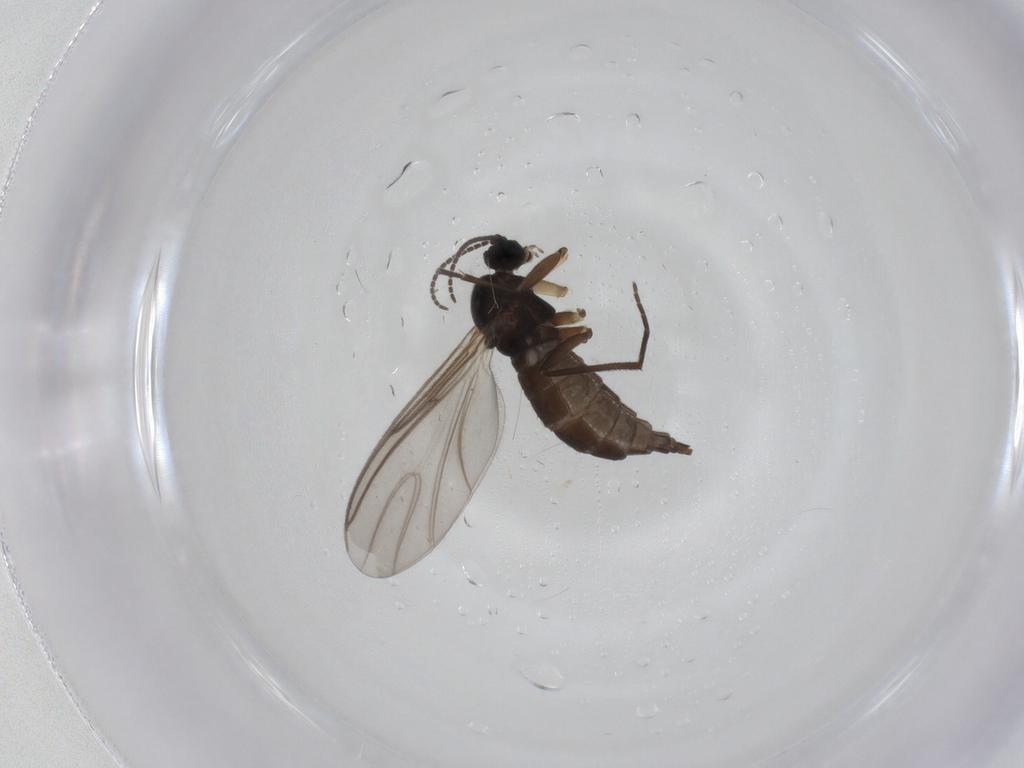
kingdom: Animalia
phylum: Arthropoda
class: Insecta
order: Diptera
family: Sciaridae
